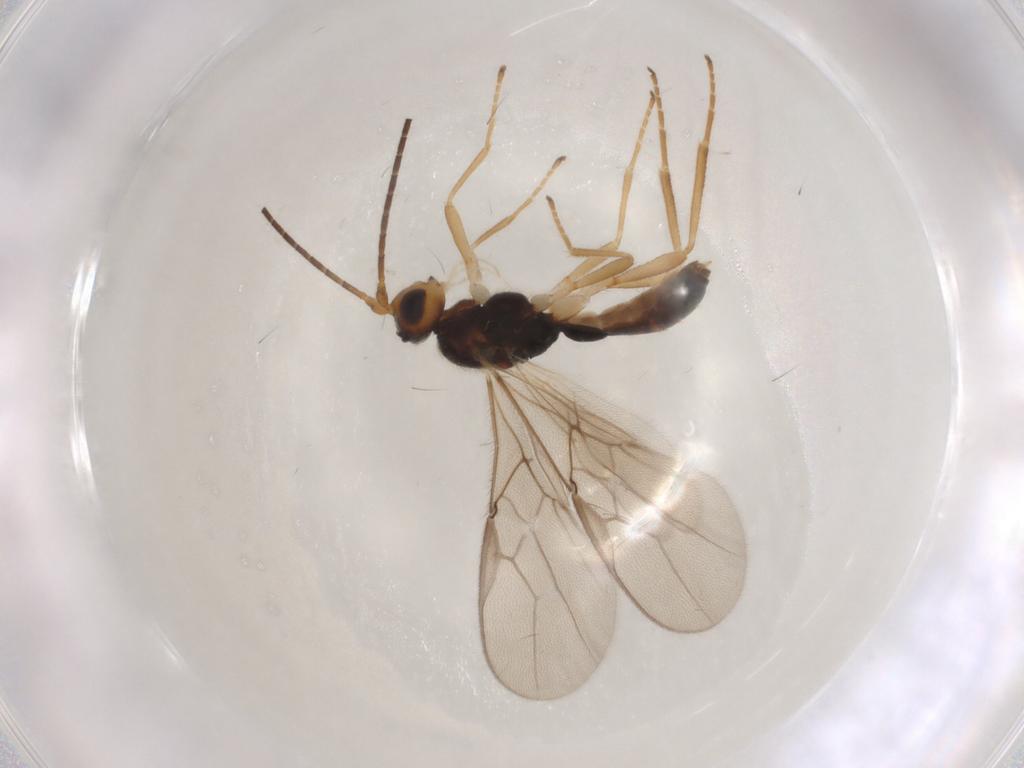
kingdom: Animalia
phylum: Arthropoda
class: Insecta
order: Hymenoptera
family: Braconidae
